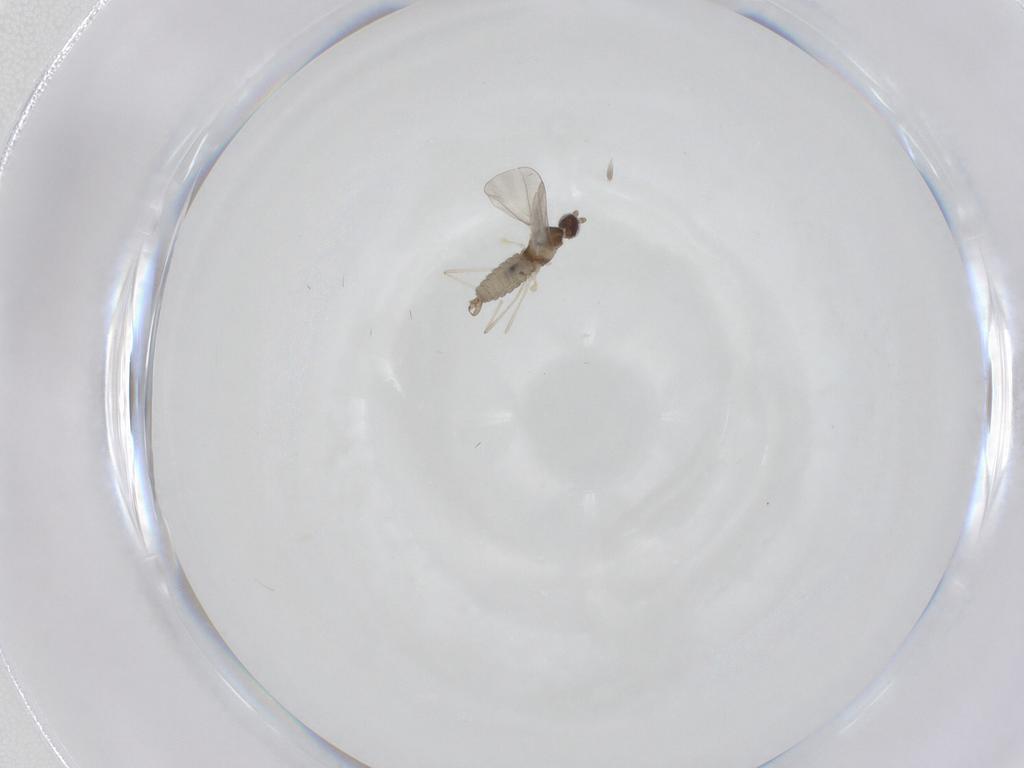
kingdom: Animalia
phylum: Arthropoda
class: Insecta
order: Diptera
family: Cecidomyiidae
